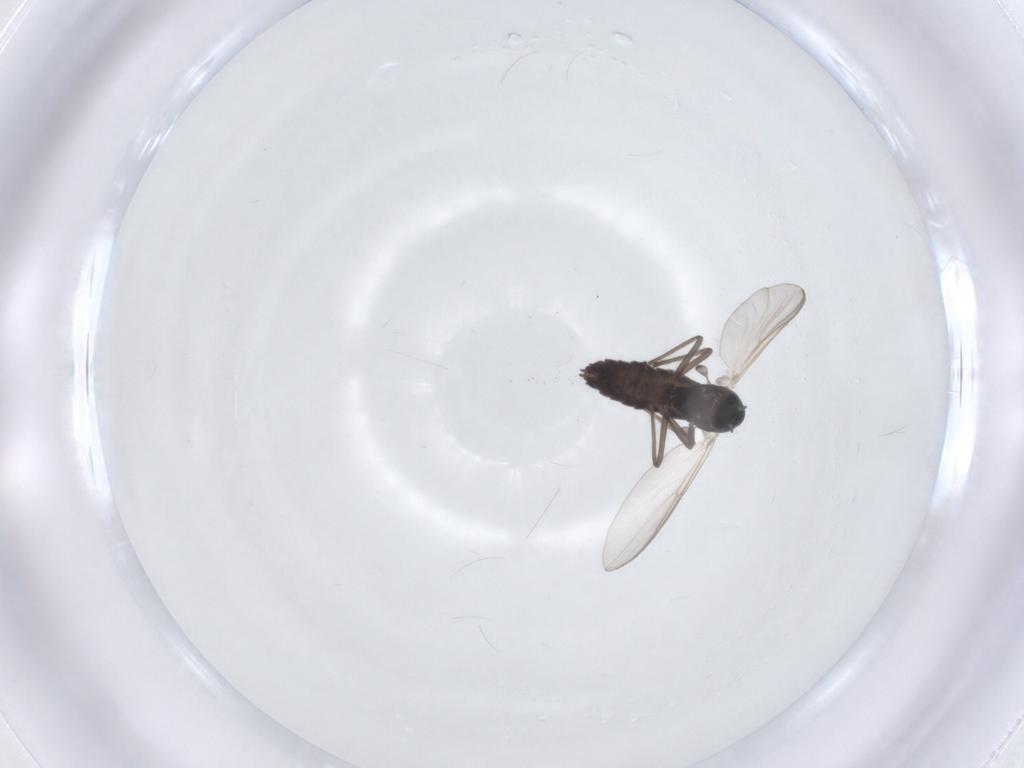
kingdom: Animalia
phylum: Arthropoda
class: Insecta
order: Diptera
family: Chironomidae
